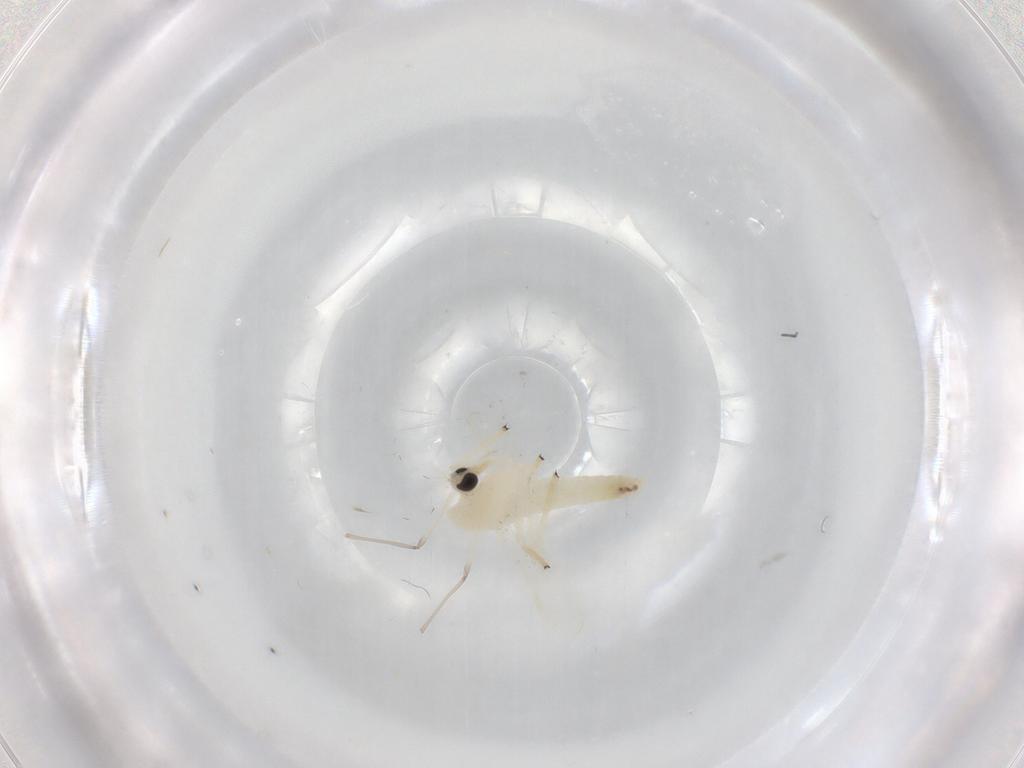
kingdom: Animalia
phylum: Arthropoda
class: Insecta
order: Diptera
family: Chironomidae
